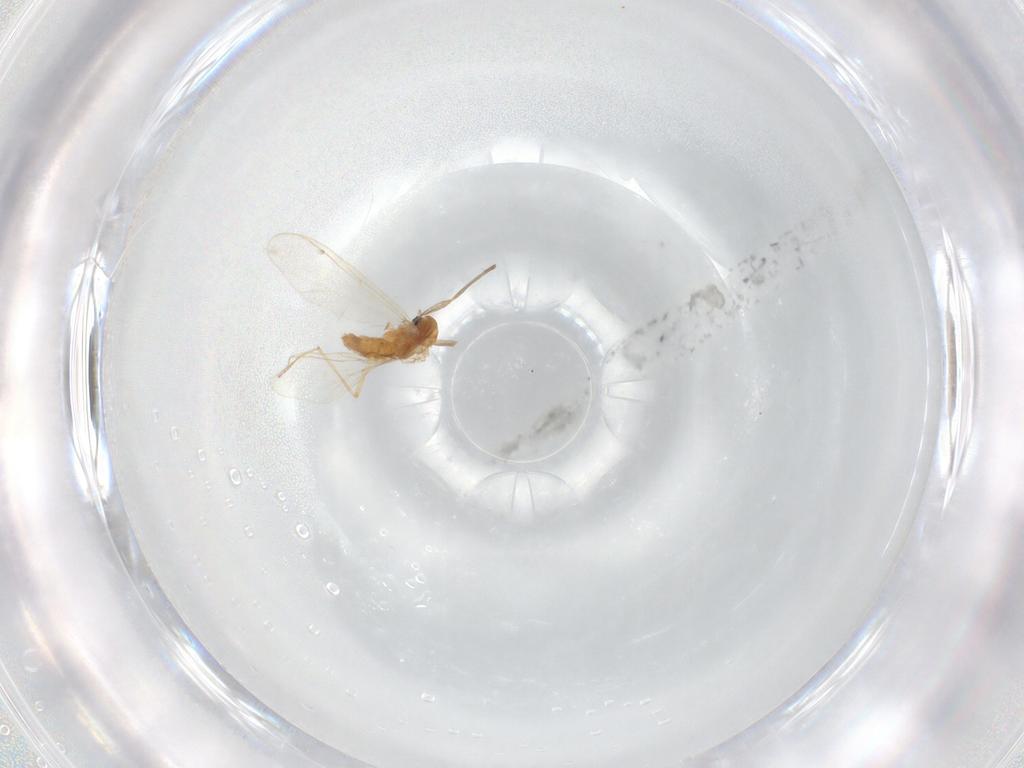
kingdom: Animalia
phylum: Arthropoda
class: Insecta
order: Diptera
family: Chironomidae
